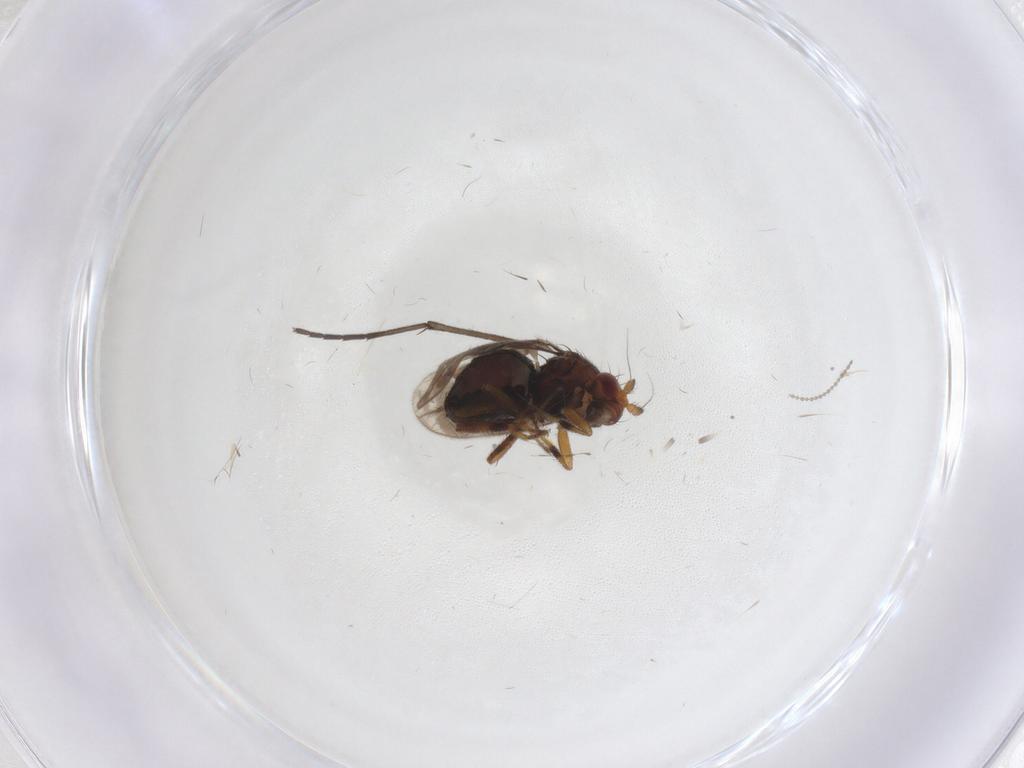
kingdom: Animalia
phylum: Arthropoda
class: Insecta
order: Diptera
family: Sphaeroceridae
